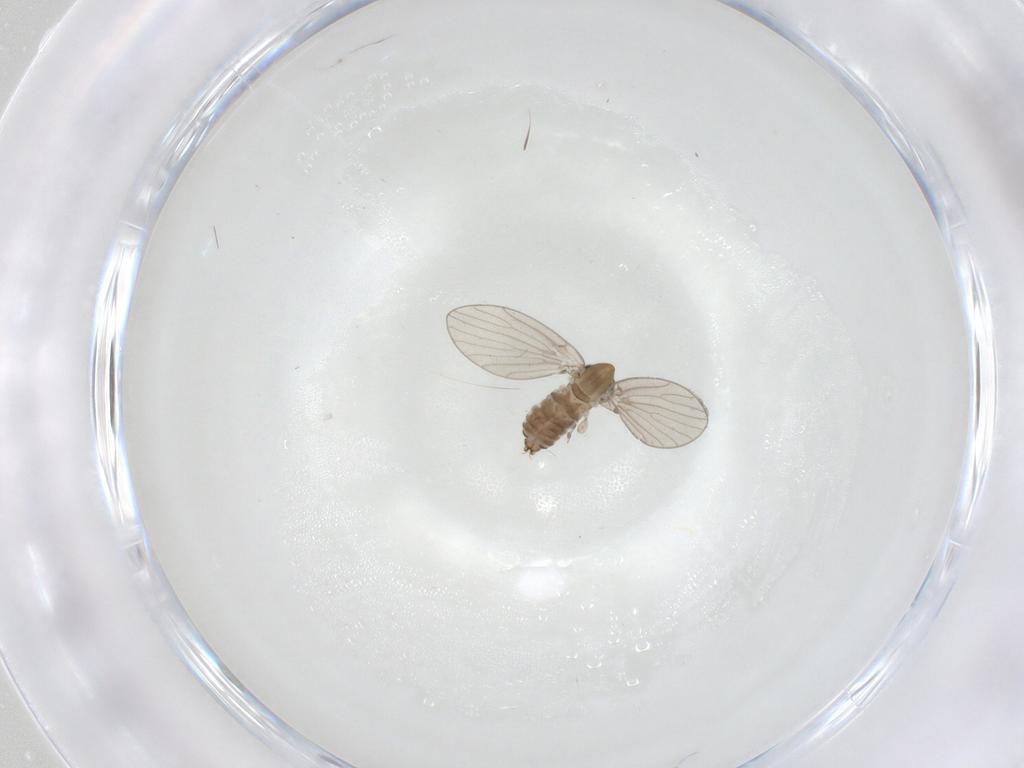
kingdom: Animalia
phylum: Arthropoda
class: Insecta
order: Diptera
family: Psychodidae
